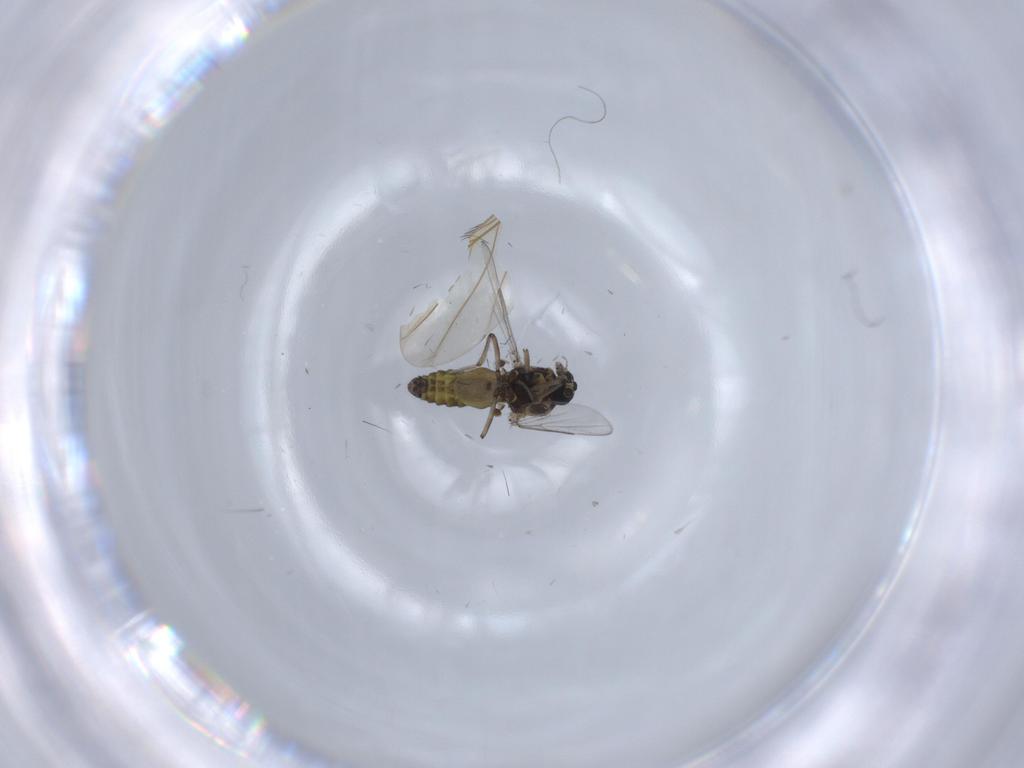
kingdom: Animalia
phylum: Arthropoda
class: Insecta
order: Diptera
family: Ceratopogonidae
